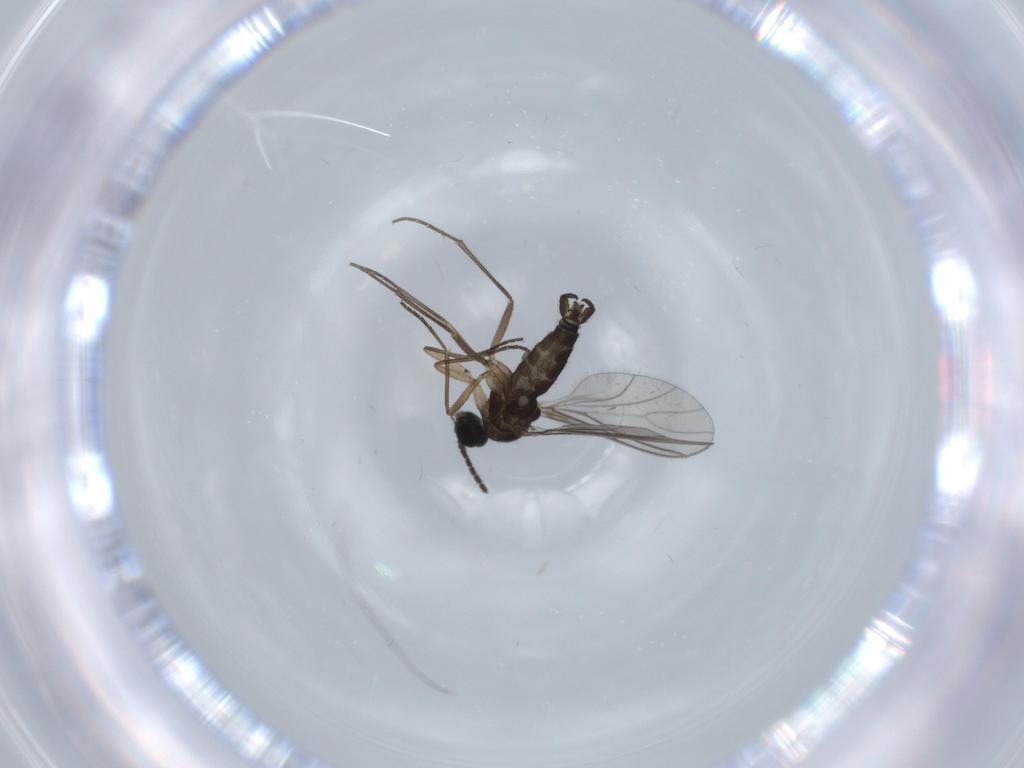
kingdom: Animalia
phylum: Arthropoda
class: Insecta
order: Diptera
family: Sciaridae
